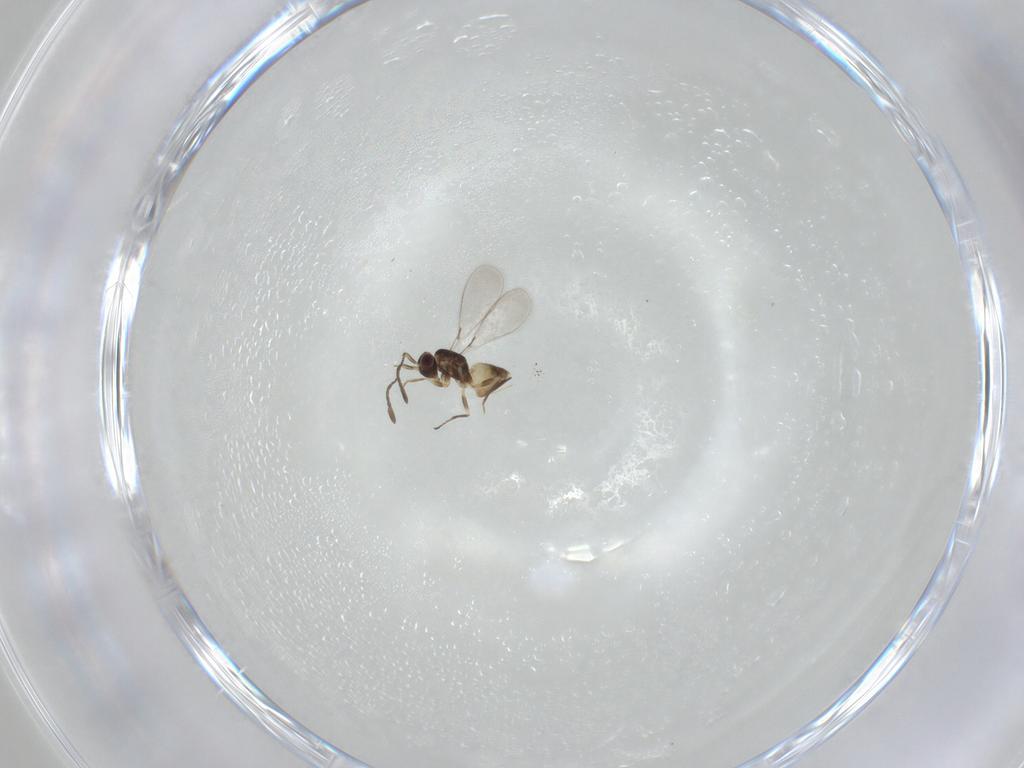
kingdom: Animalia
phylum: Arthropoda
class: Insecta
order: Hymenoptera
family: Mymaridae
